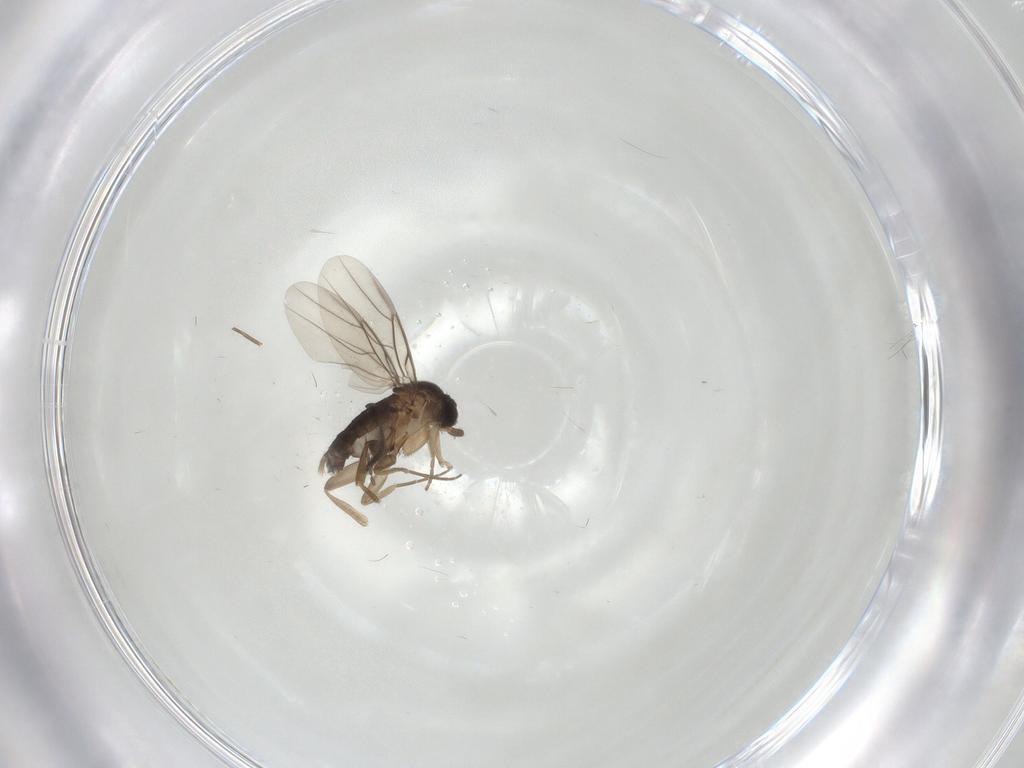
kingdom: Animalia
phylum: Arthropoda
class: Insecta
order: Diptera
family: Phoridae
